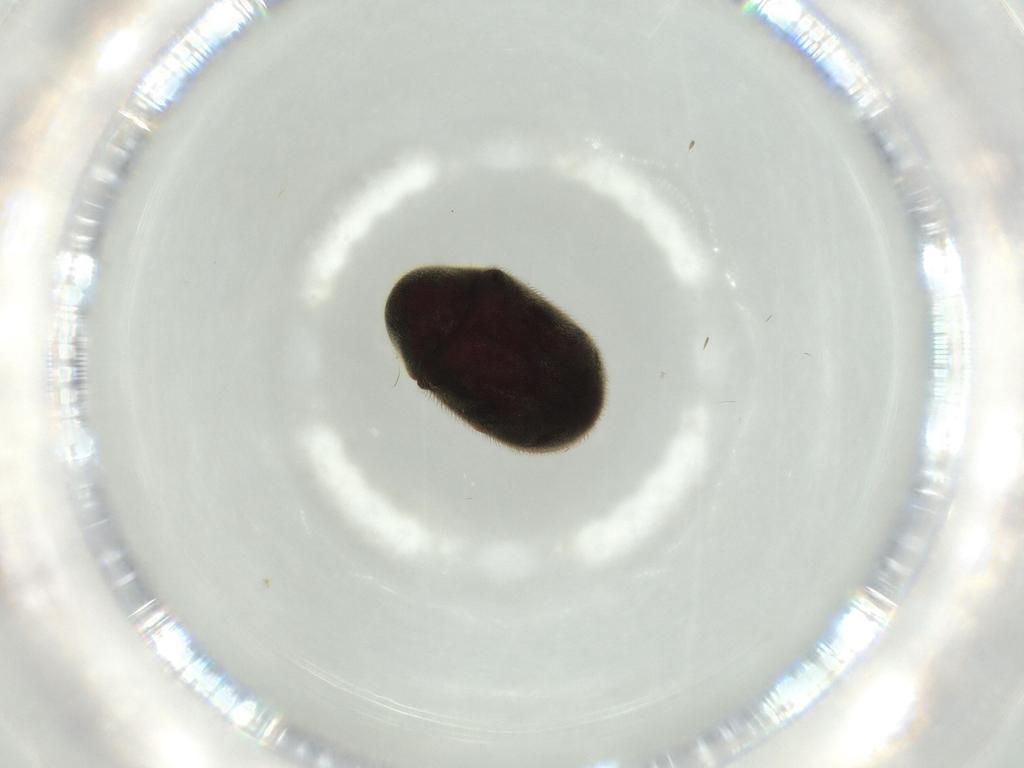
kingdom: Animalia
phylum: Arthropoda
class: Insecta
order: Coleoptera
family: Ptinidae
